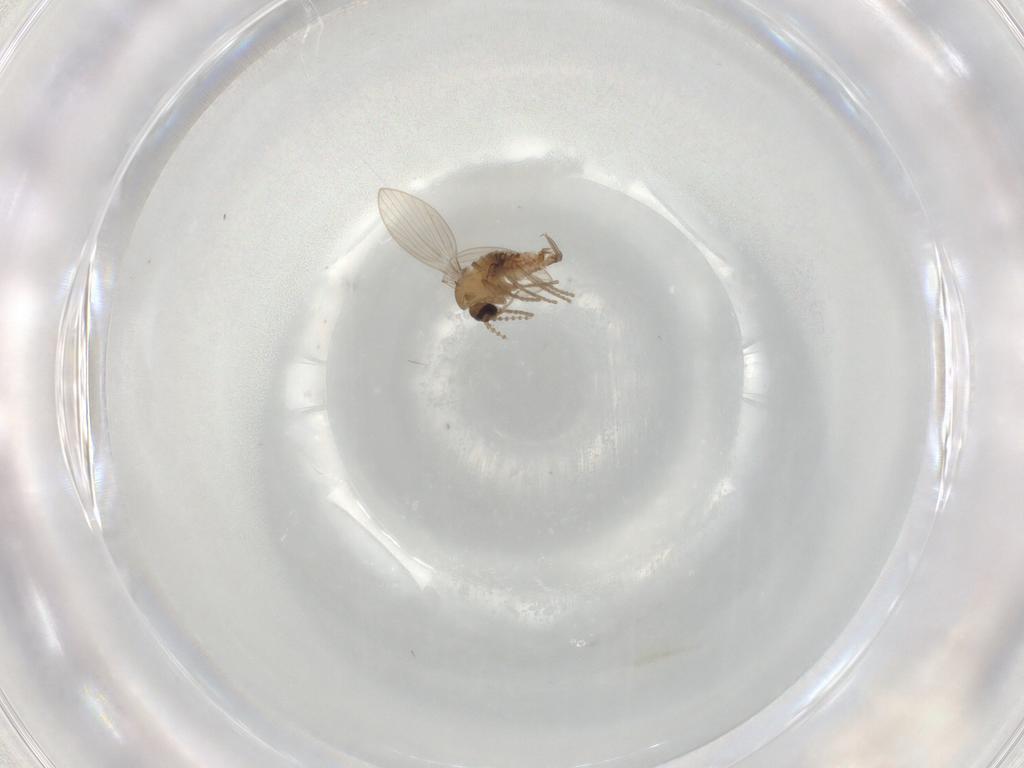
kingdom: Animalia
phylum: Arthropoda
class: Insecta
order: Diptera
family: Psychodidae
